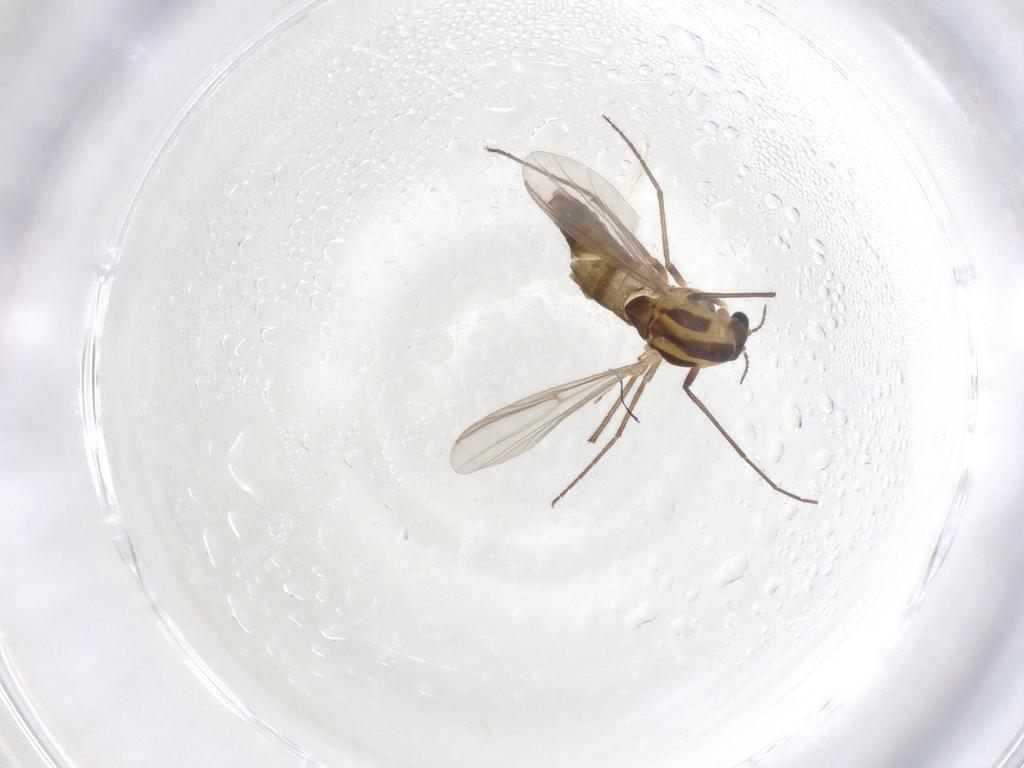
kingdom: Animalia
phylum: Arthropoda
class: Insecta
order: Diptera
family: Chironomidae
